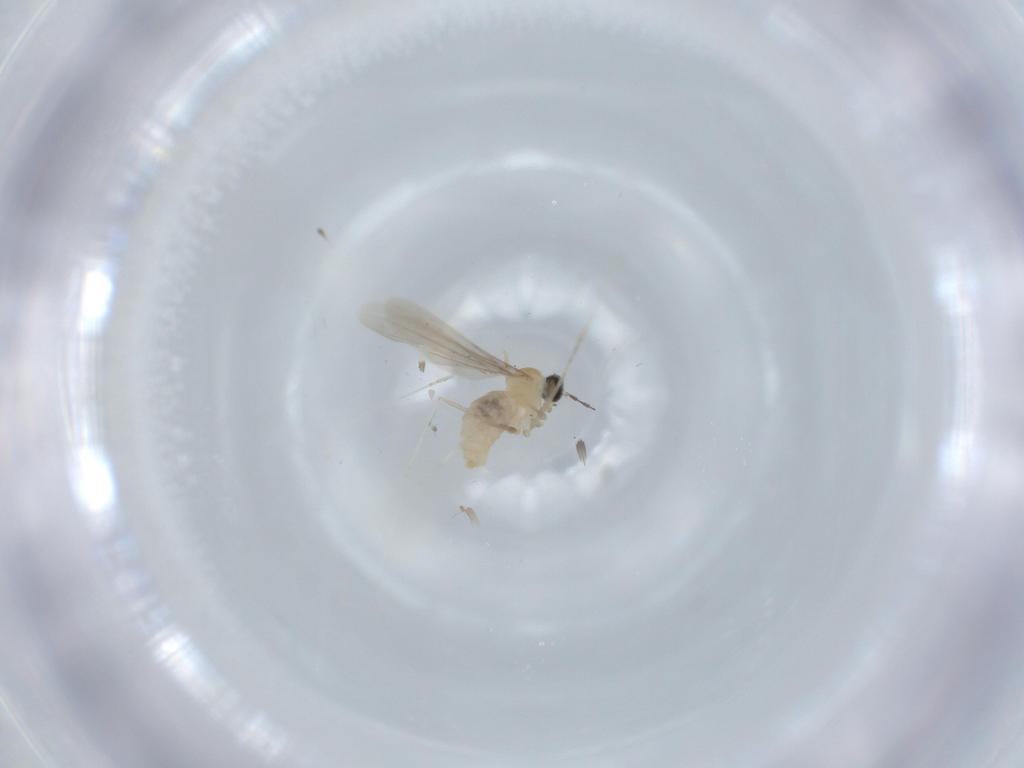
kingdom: Animalia
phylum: Arthropoda
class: Insecta
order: Diptera
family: Cecidomyiidae
